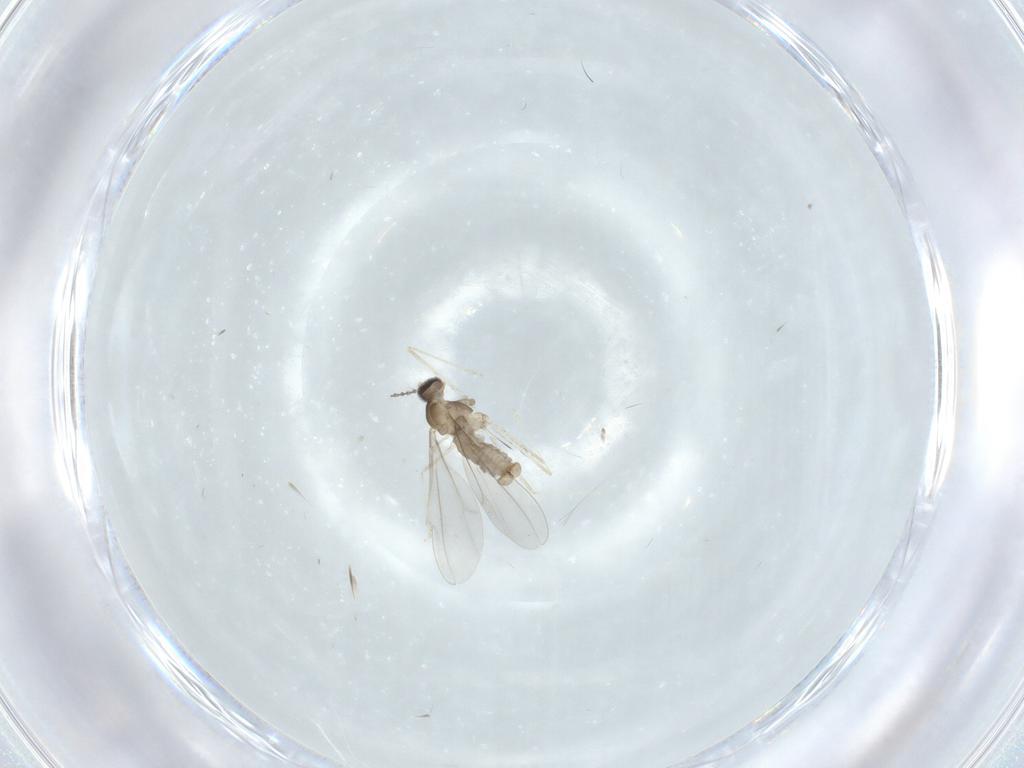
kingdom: Animalia
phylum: Arthropoda
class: Insecta
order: Diptera
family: Cecidomyiidae
